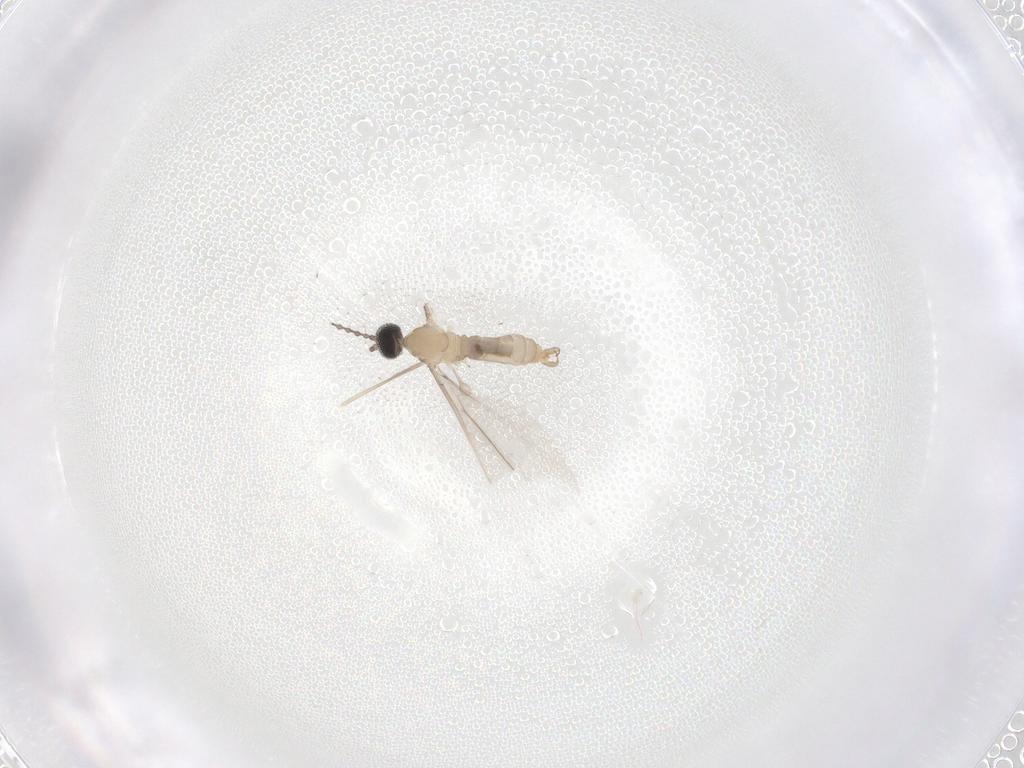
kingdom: Animalia
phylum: Arthropoda
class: Insecta
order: Diptera
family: Cecidomyiidae
